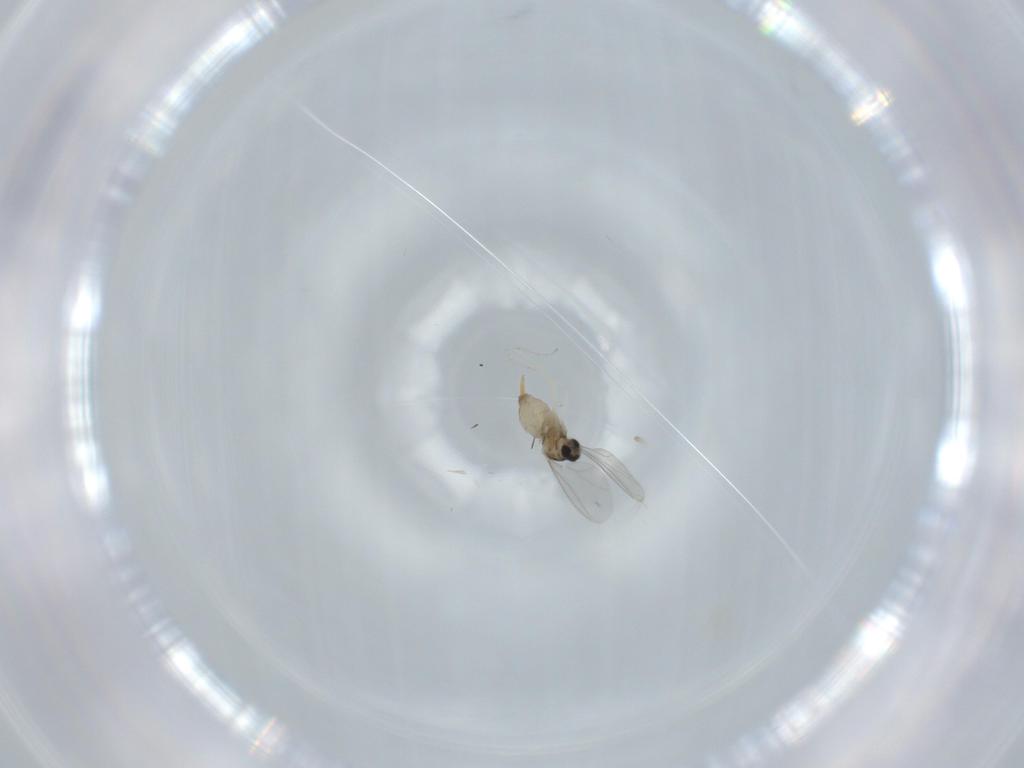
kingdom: Animalia
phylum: Arthropoda
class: Insecta
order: Diptera
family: Cecidomyiidae
